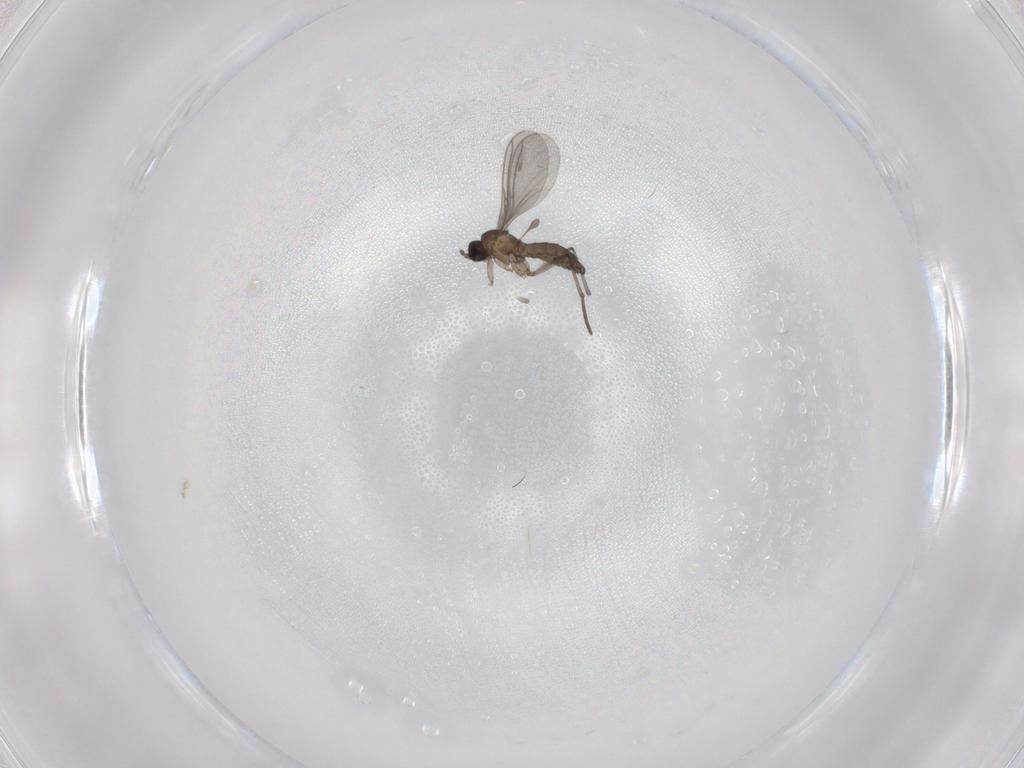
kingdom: Animalia
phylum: Arthropoda
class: Insecta
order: Diptera
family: Sciaridae
